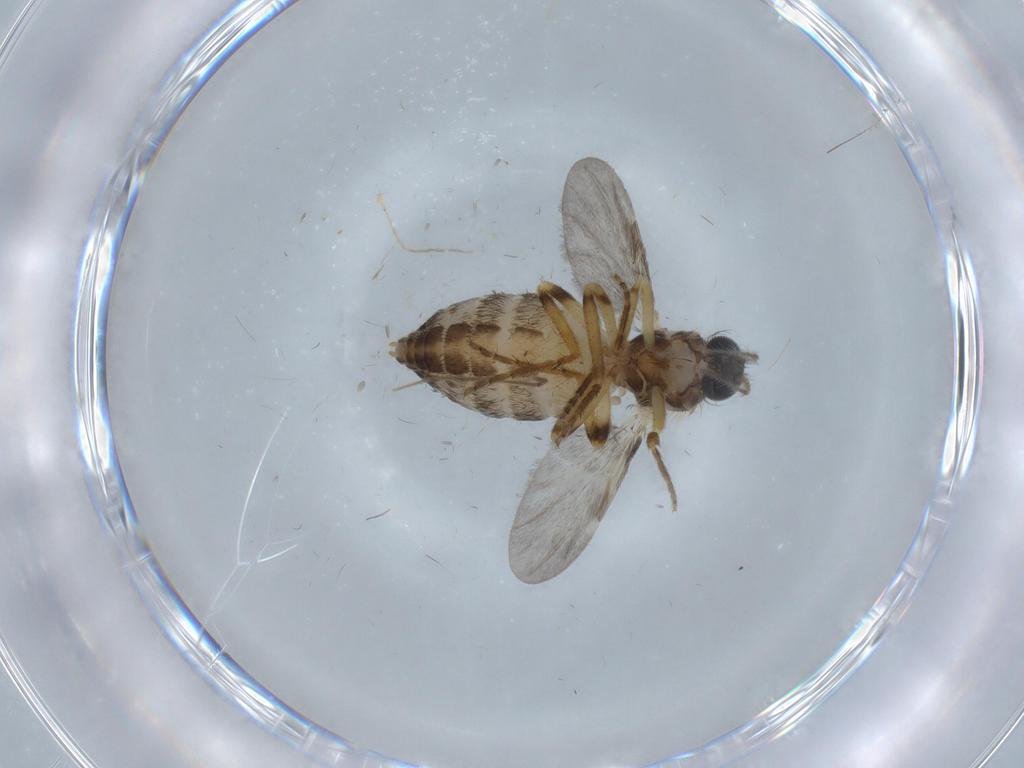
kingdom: Animalia
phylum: Arthropoda
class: Insecta
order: Diptera
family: Ceratopogonidae
